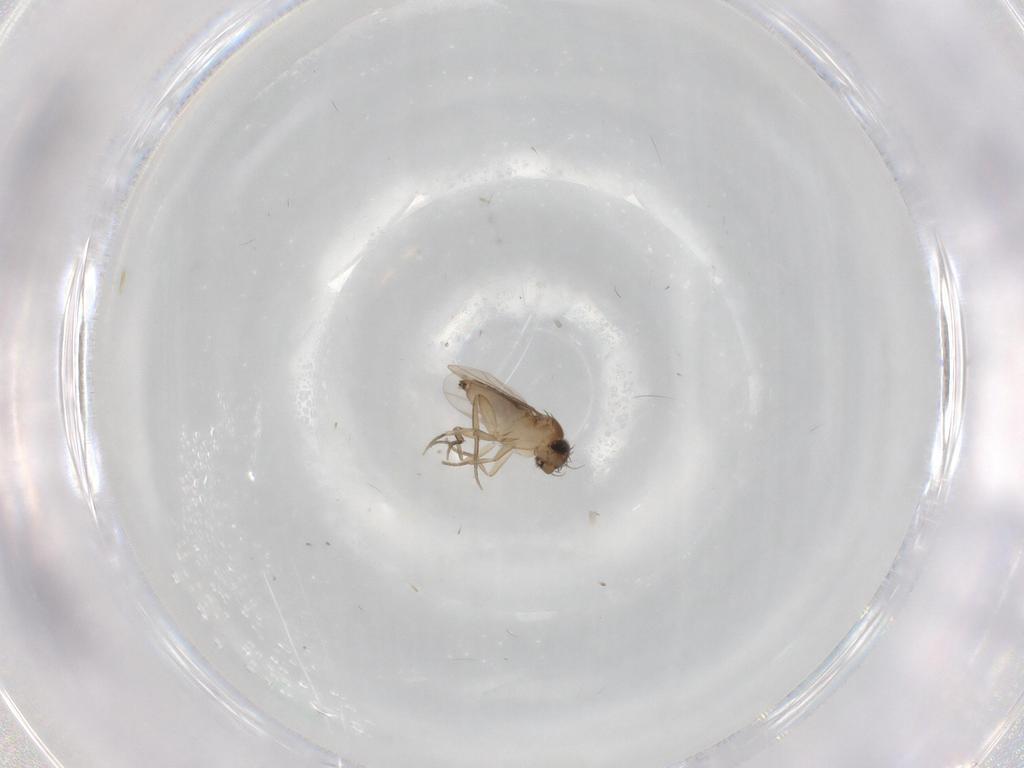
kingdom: Animalia
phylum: Arthropoda
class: Insecta
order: Diptera
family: Phoridae
